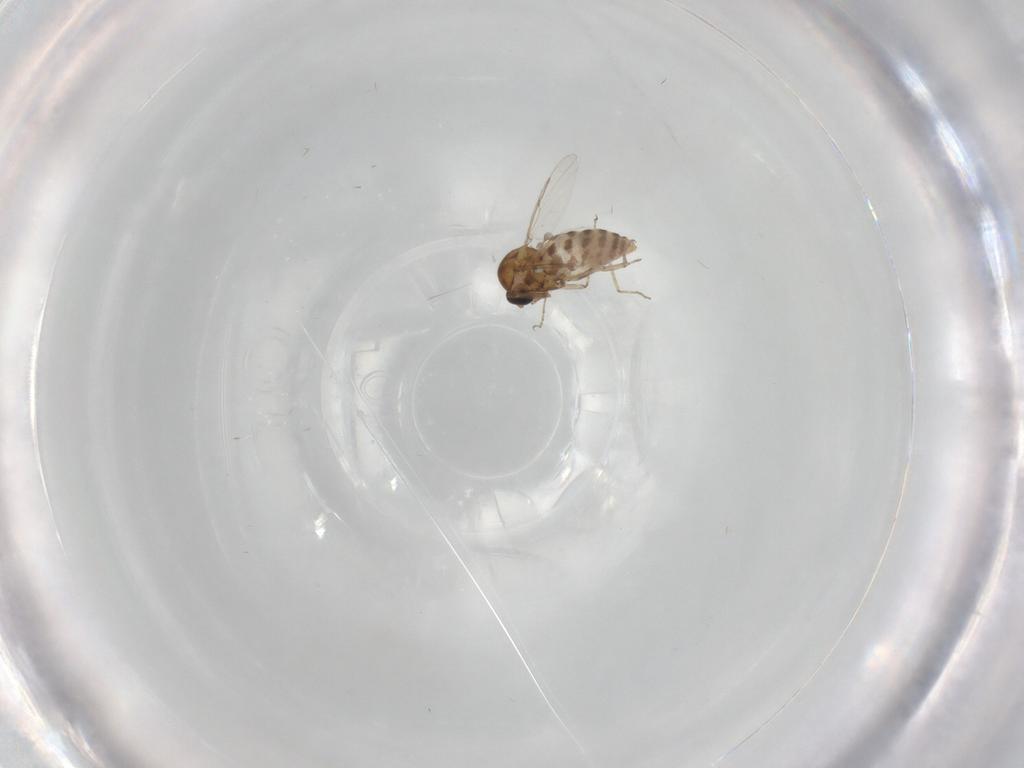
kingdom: Animalia
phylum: Arthropoda
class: Insecta
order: Diptera
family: Ceratopogonidae
